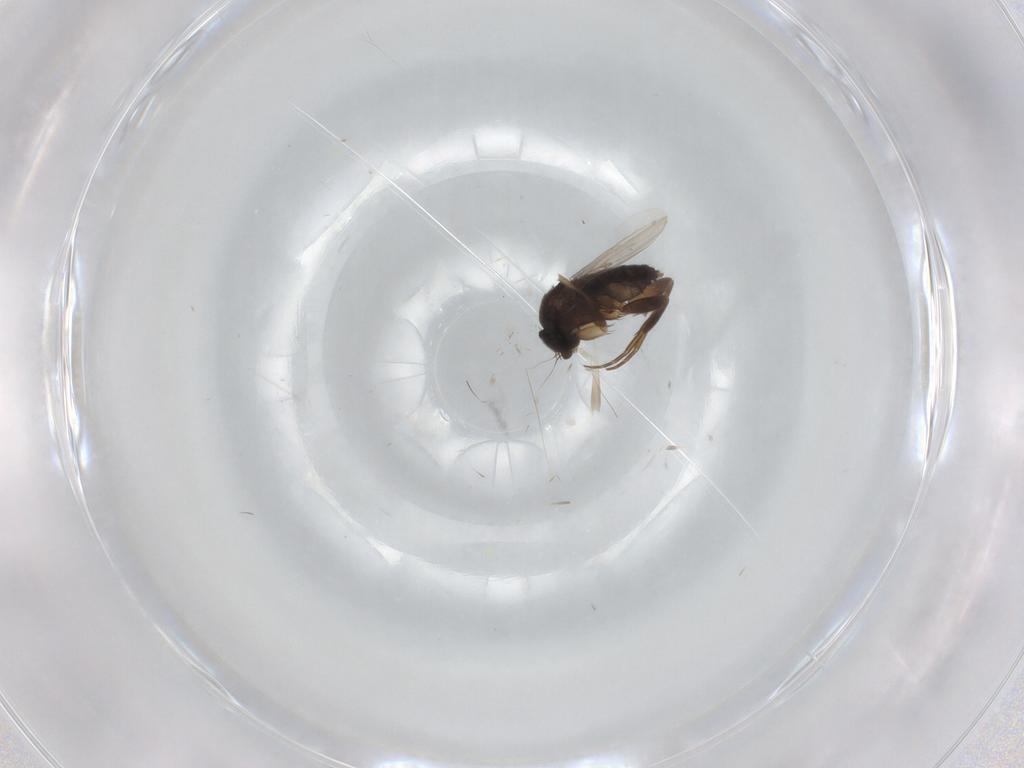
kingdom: Animalia
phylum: Arthropoda
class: Insecta
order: Diptera
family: Phoridae
